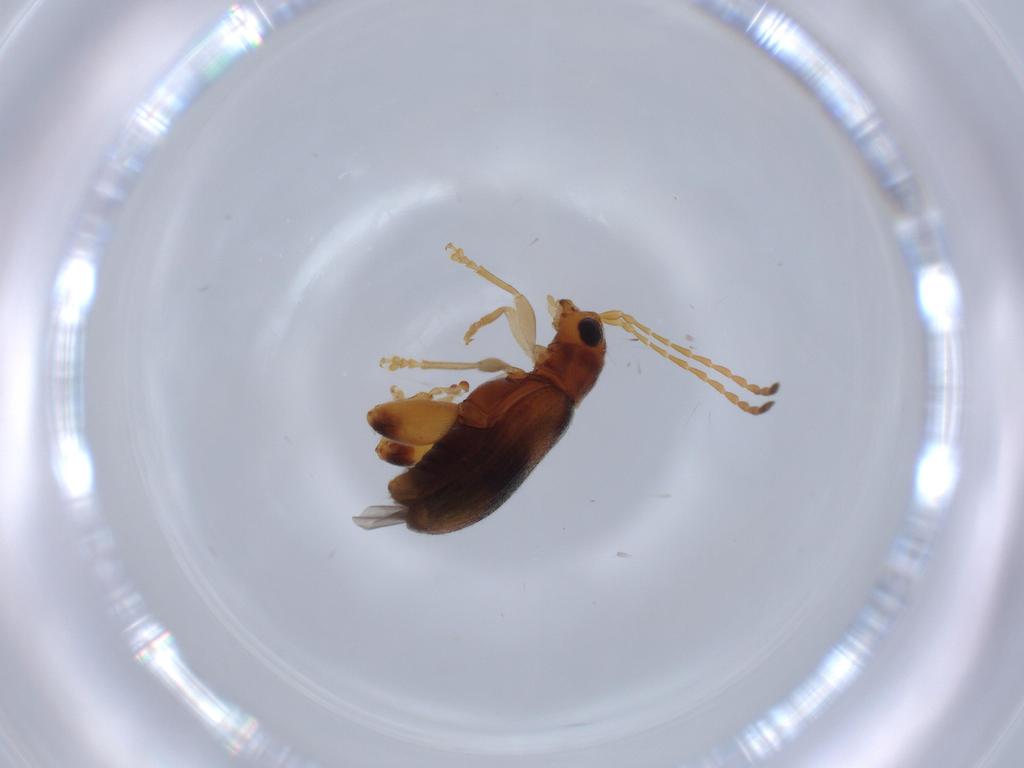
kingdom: Animalia
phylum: Arthropoda
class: Insecta
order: Coleoptera
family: Chrysomelidae
